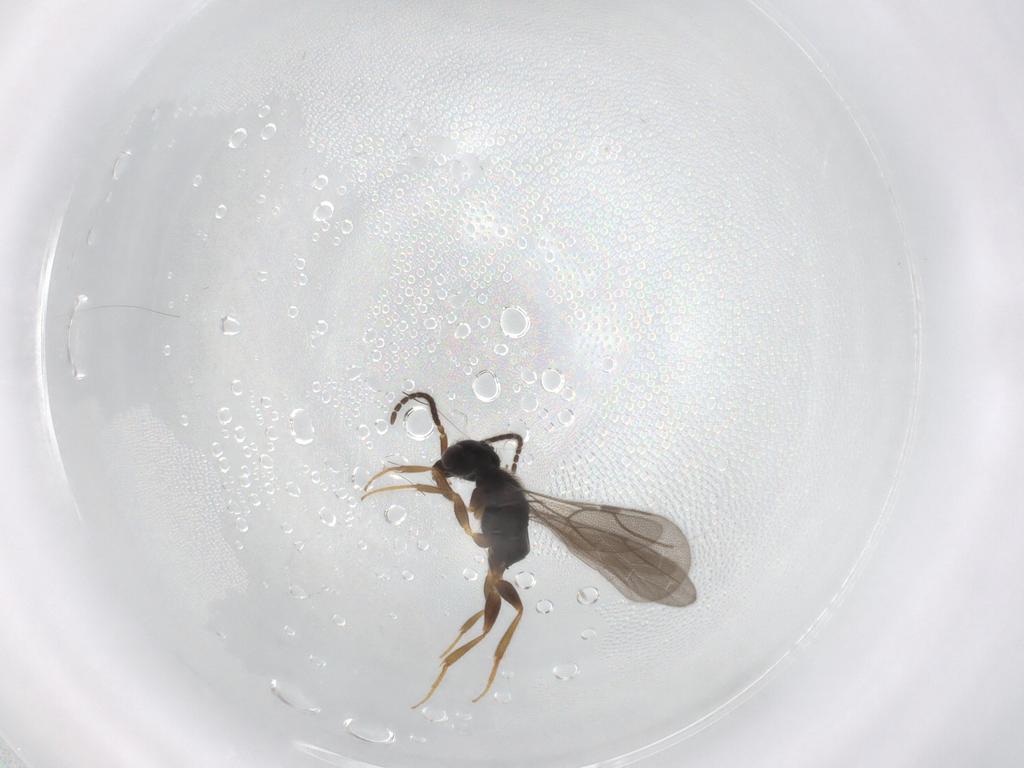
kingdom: Animalia
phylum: Arthropoda
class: Insecta
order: Hymenoptera
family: Bethylidae
